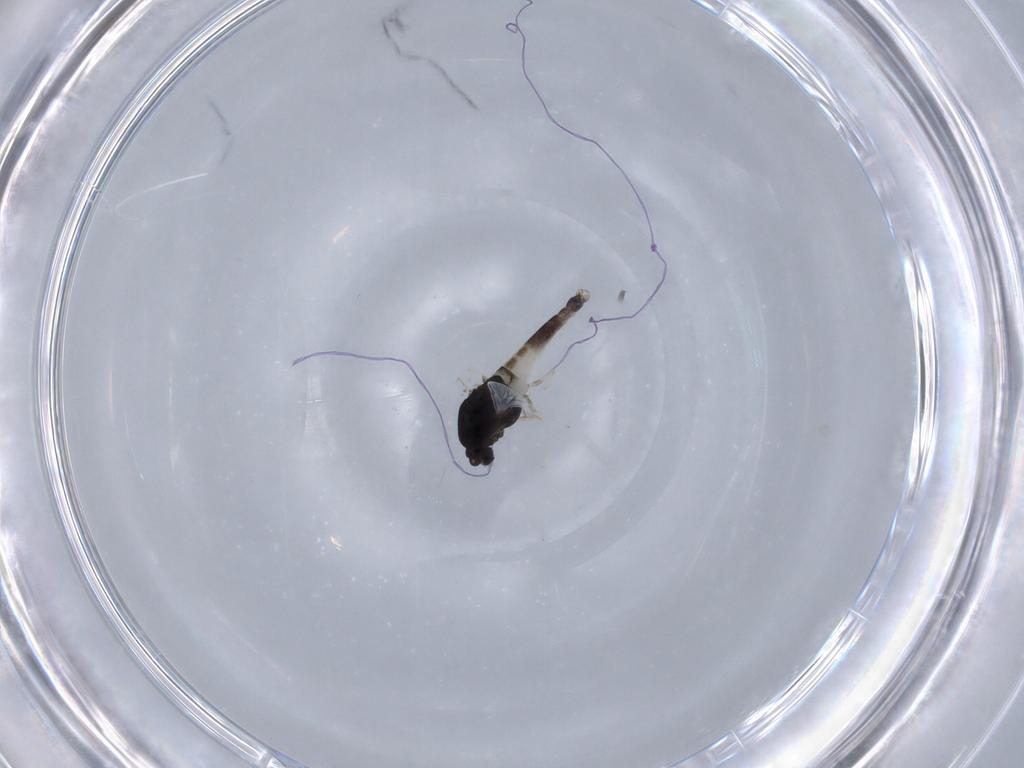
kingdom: Animalia
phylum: Arthropoda
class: Insecta
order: Diptera
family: Chironomidae
